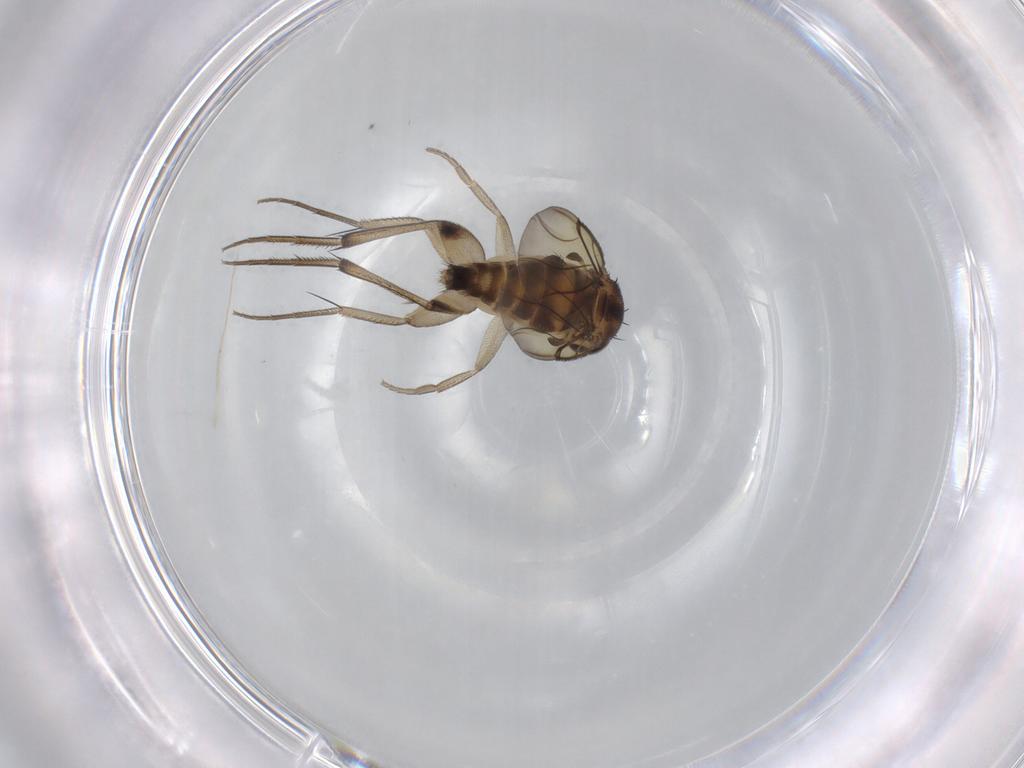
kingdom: Animalia
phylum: Arthropoda
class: Insecta
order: Diptera
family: Phoridae
